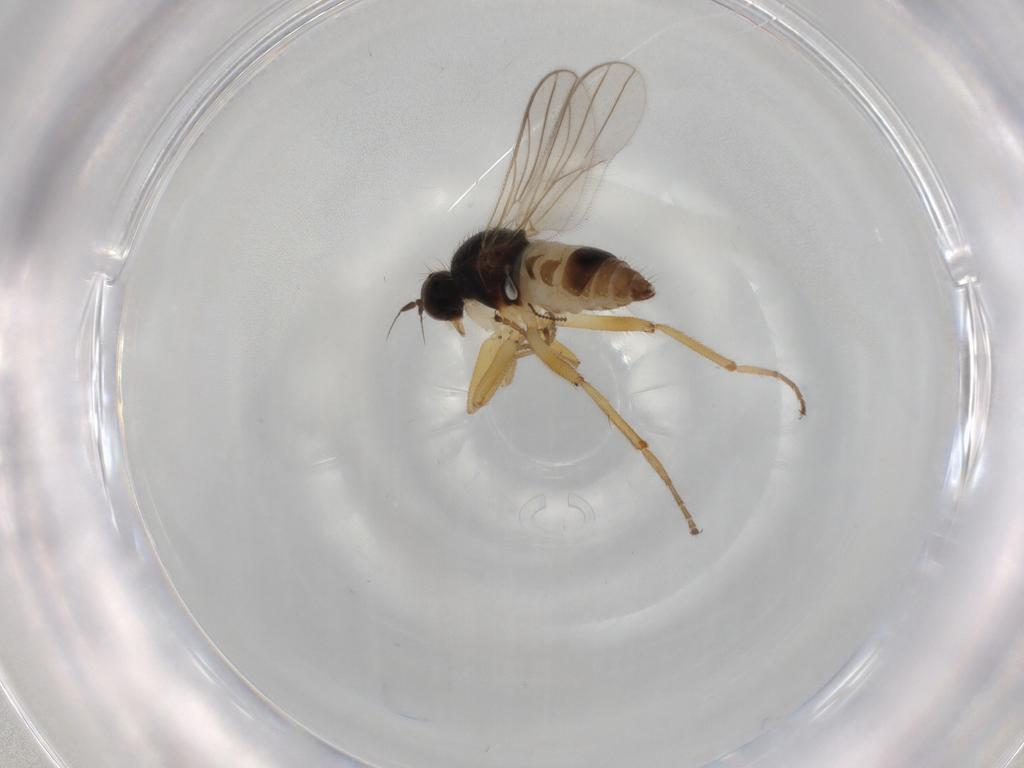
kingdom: Animalia
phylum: Arthropoda
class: Insecta
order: Diptera
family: Hybotidae
